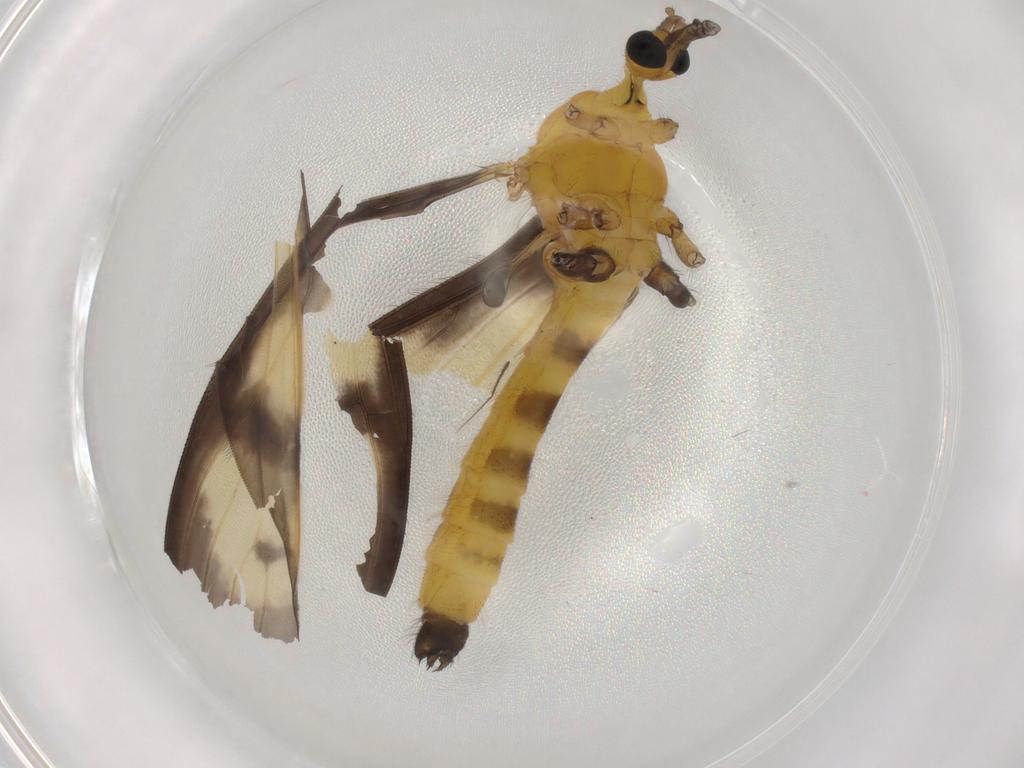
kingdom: Animalia
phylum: Arthropoda
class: Insecta
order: Diptera
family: Limoniidae
